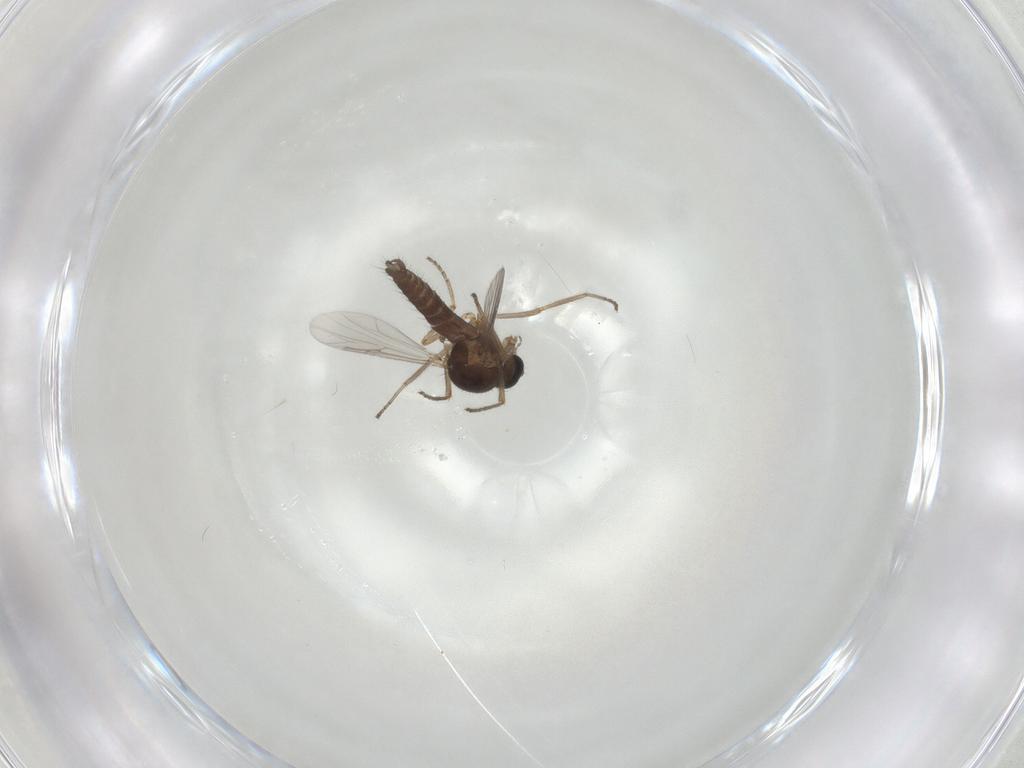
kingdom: Animalia
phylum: Arthropoda
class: Insecta
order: Diptera
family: Ceratopogonidae
